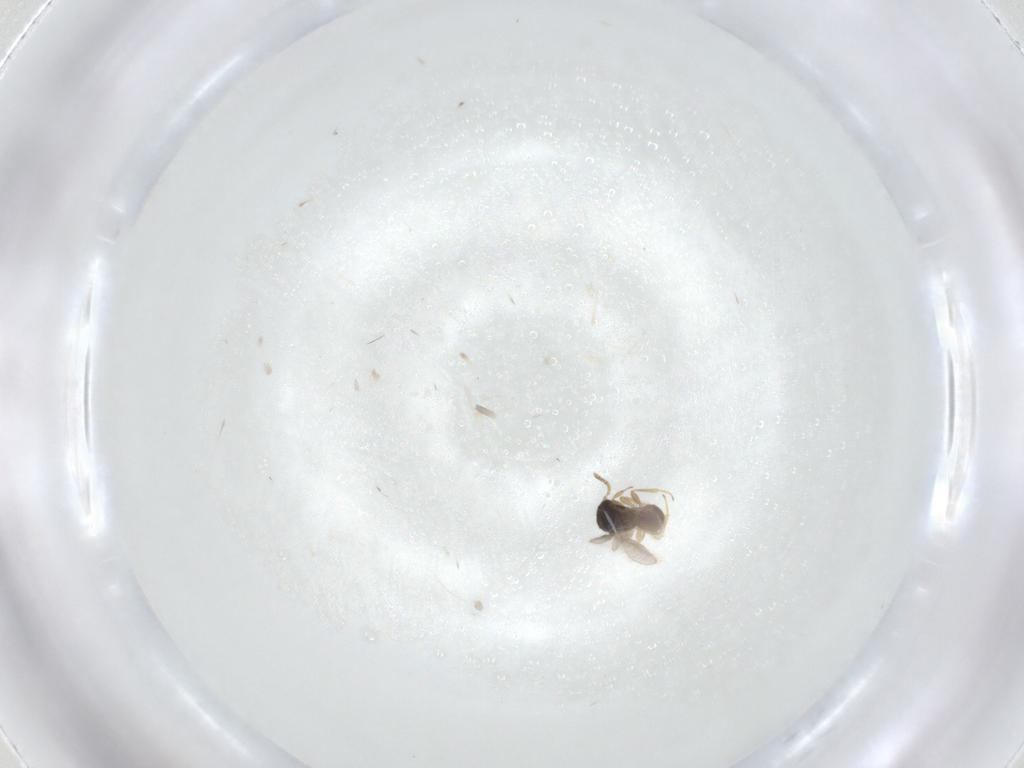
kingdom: Animalia
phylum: Arthropoda
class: Insecta
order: Hymenoptera
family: Scelionidae
